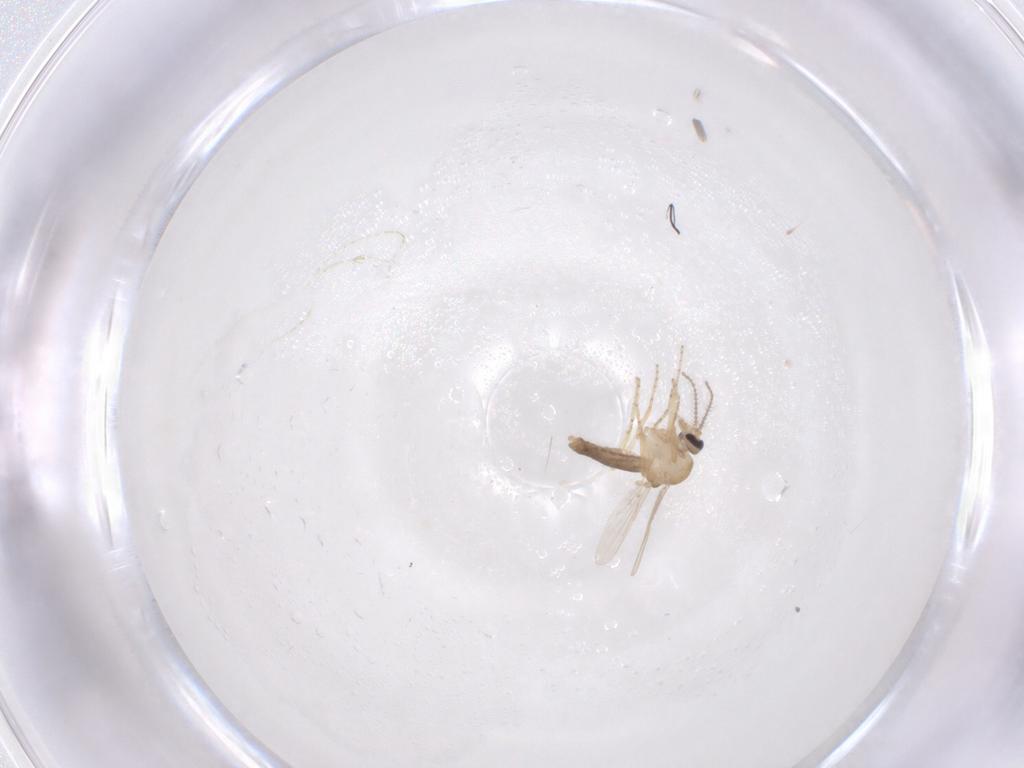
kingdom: Animalia
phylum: Arthropoda
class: Insecta
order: Diptera
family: Ceratopogonidae
